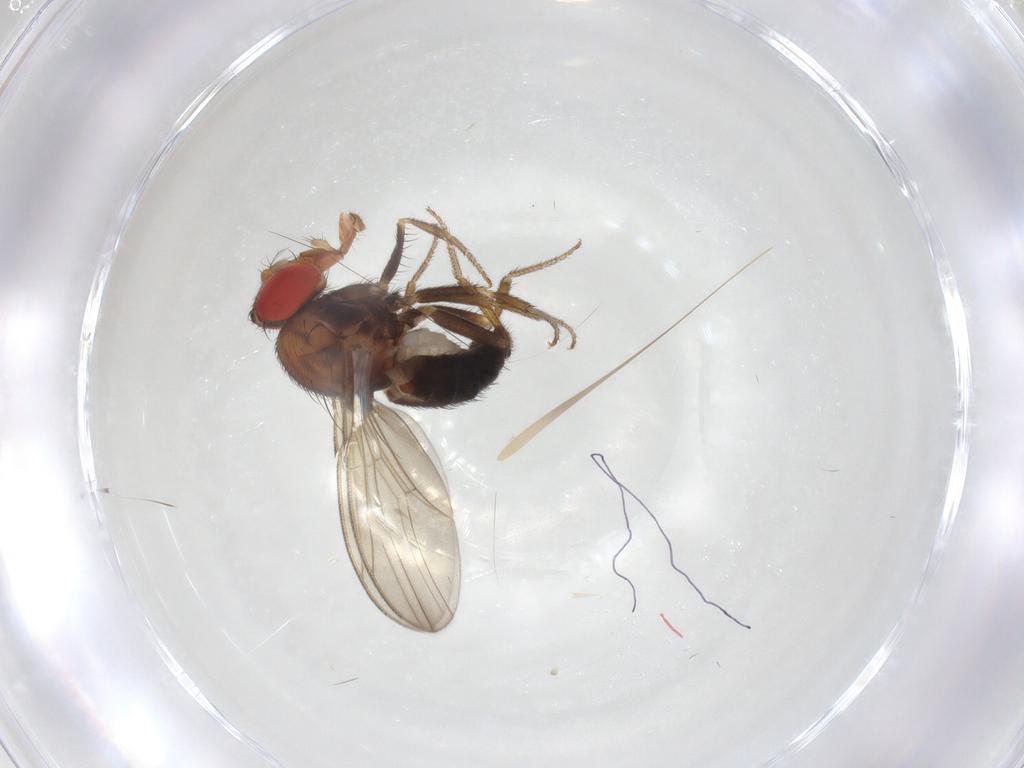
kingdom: Animalia
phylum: Arthropoda
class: Insecta
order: Diptera
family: Drosophilidae
